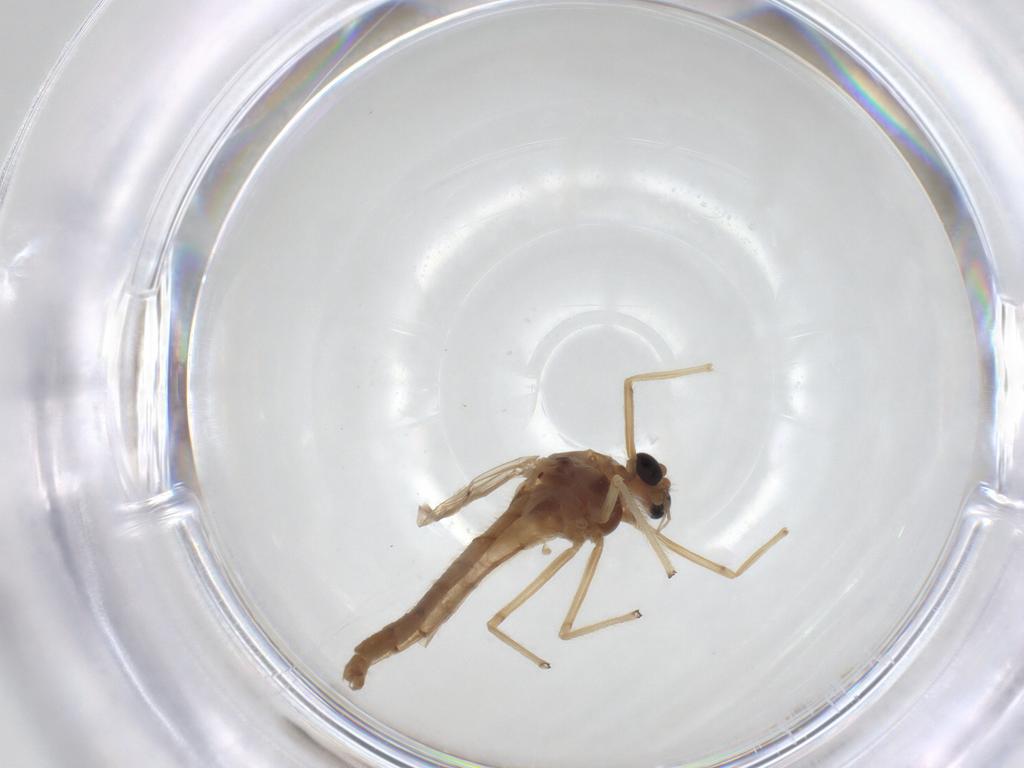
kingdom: Animalia
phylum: Arthropoda
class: Insecta
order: Diptera
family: Chironomidae
